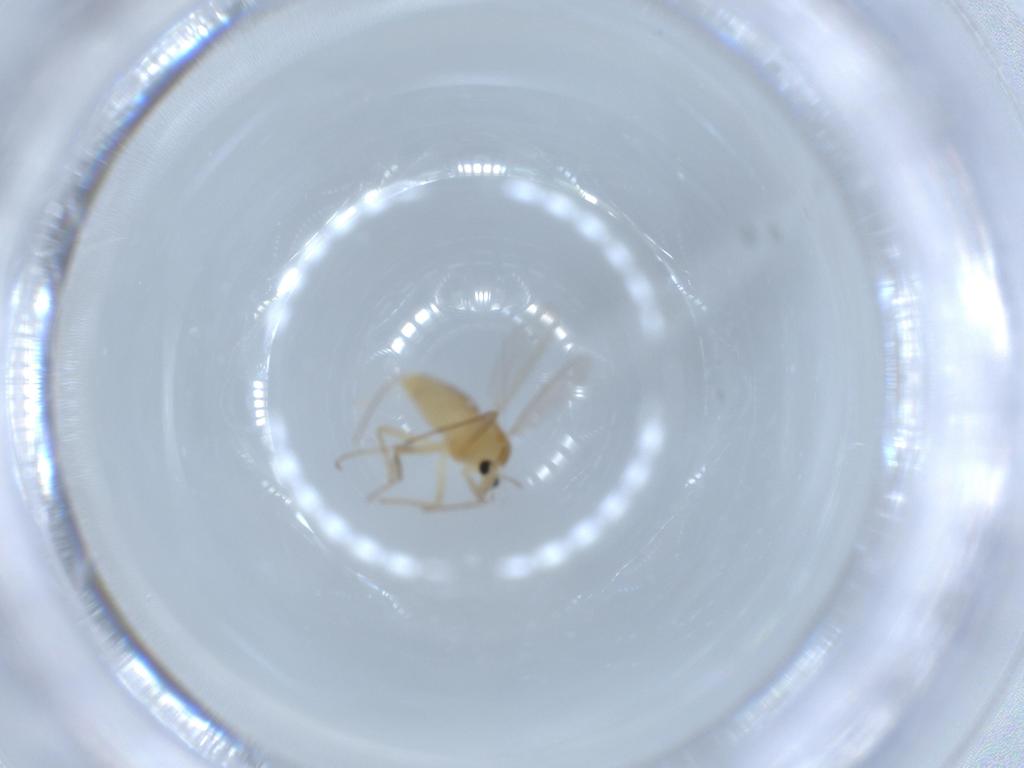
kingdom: Animalia
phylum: Arthropoda
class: Insecta
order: Diptera
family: Chironomidae
